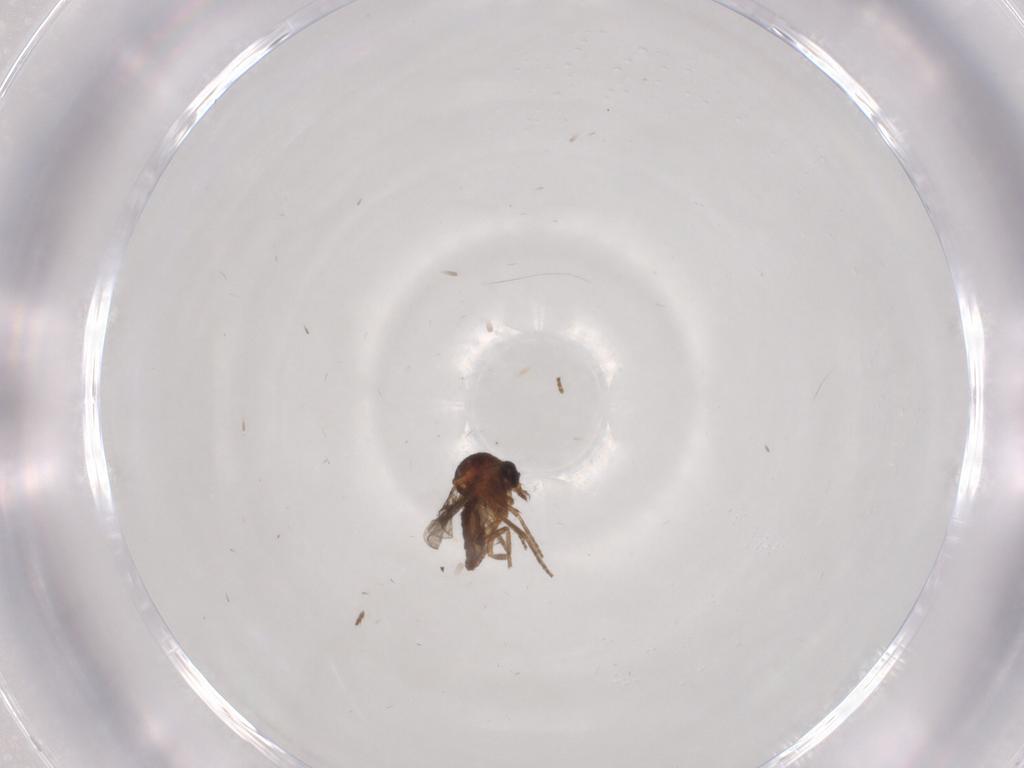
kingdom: Animalia
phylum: Arthropoda
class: Insecta
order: Diptera
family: Ceratopogonidae
